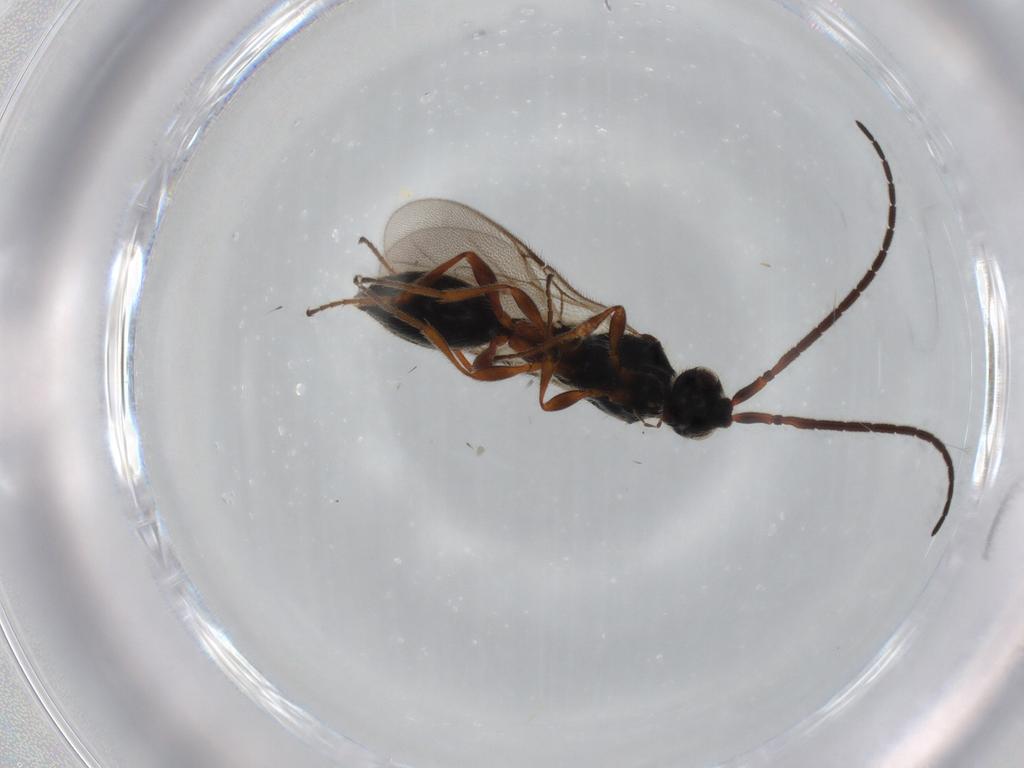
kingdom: Animalia
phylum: Arthropoda
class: Insecta
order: Hymenoptera
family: Braconidae
